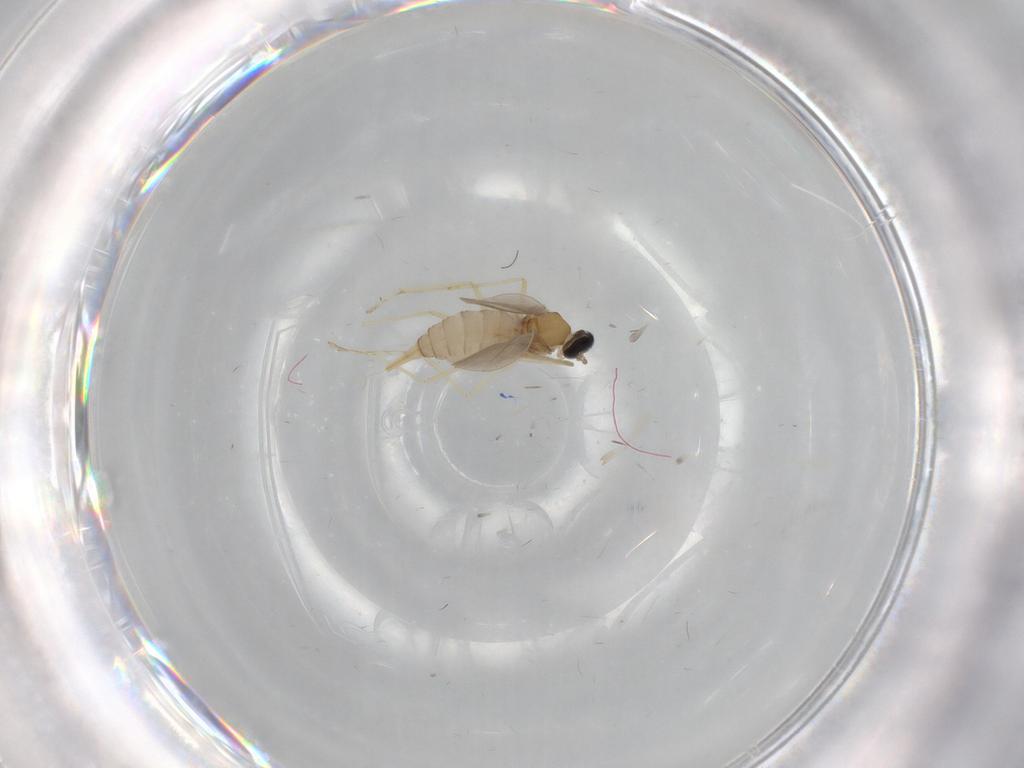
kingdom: Animalia
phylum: Arthropoda
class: Insecta
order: Diptera
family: Cecidomyiidae
